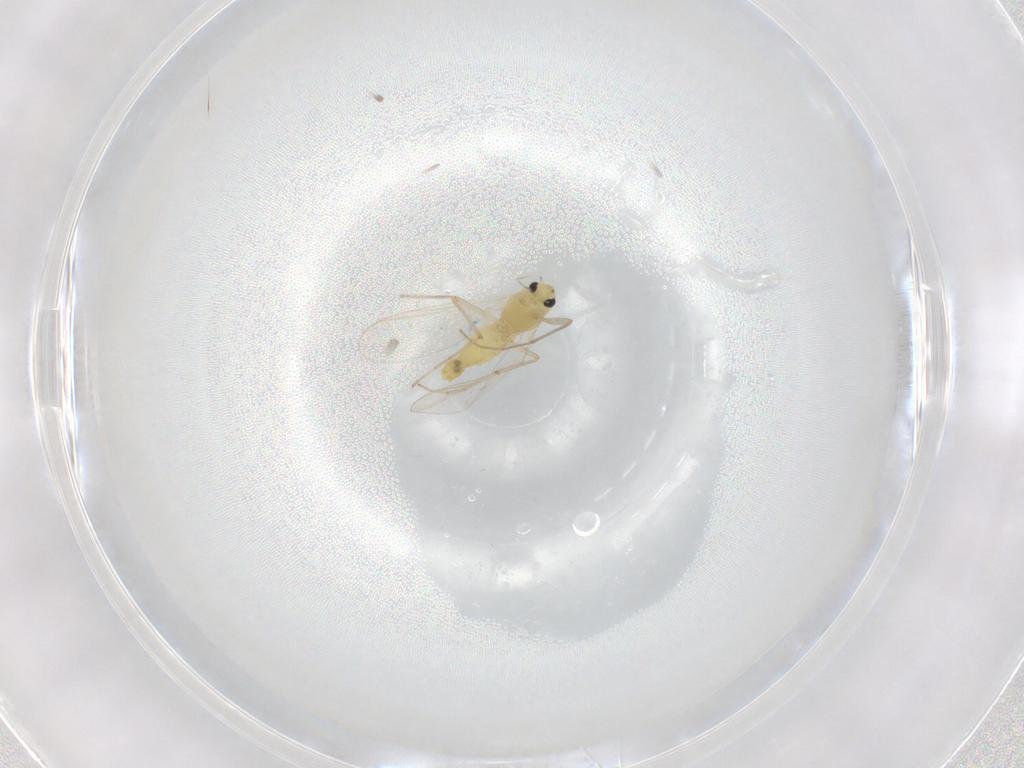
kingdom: Animalia
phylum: Arthropoda
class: Insecta
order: Diptera
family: Chironomidae
